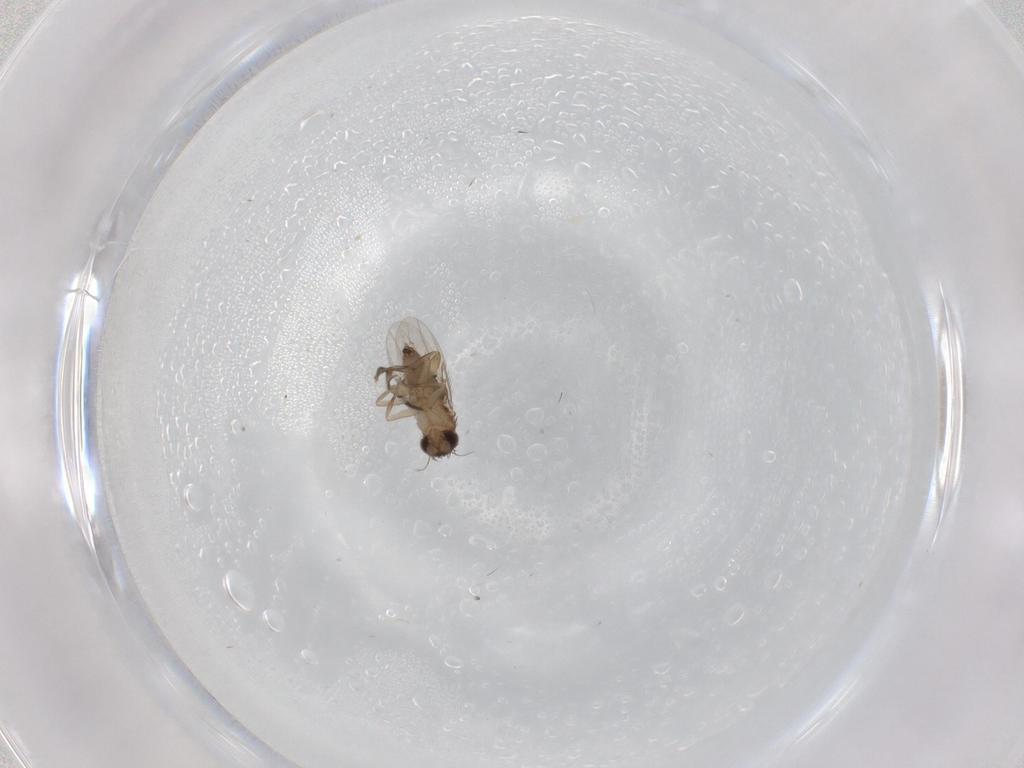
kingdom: Animalia
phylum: Arthropoda
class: Insecta
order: Diptera
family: Phoridae
